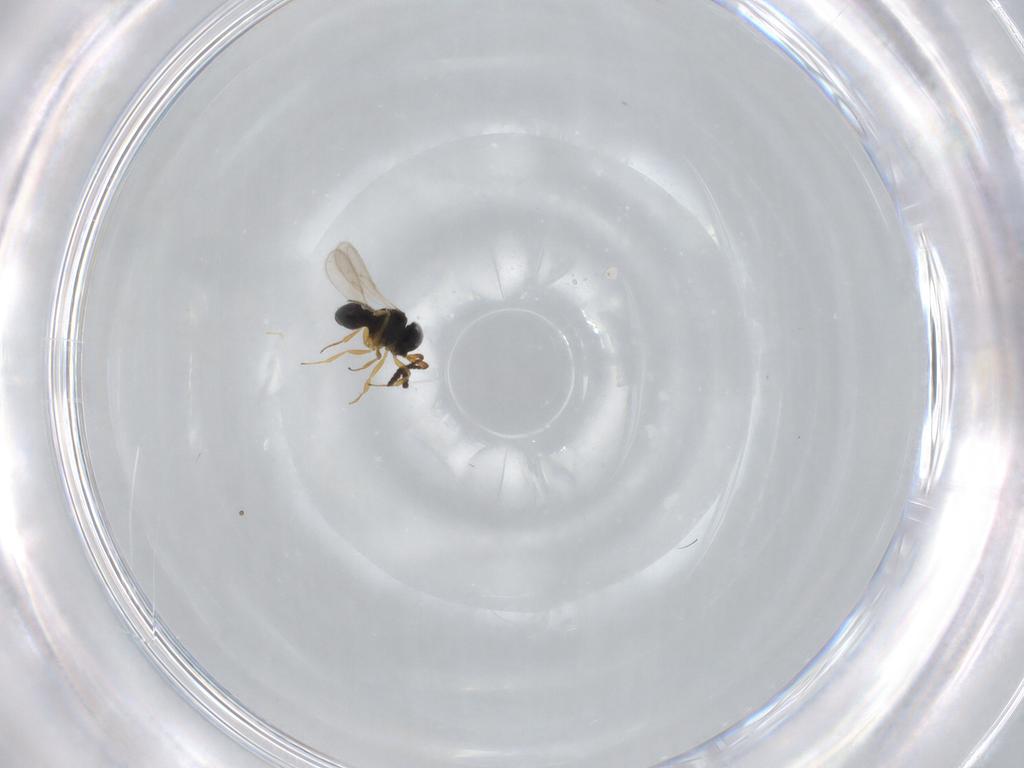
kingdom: Animalia
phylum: Arthropoda
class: Insecta
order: Hymenoptera
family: Scelionidae
